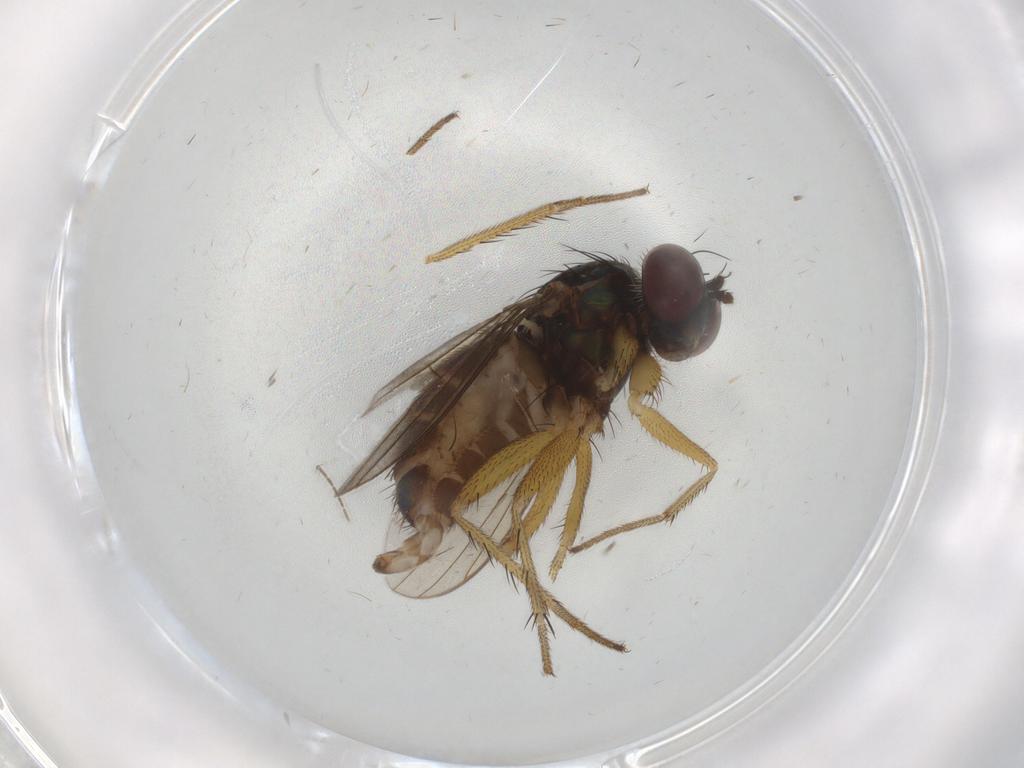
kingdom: Animalia
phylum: Arthropoda
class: Insecta
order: Diptera
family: Dolichopodidae
